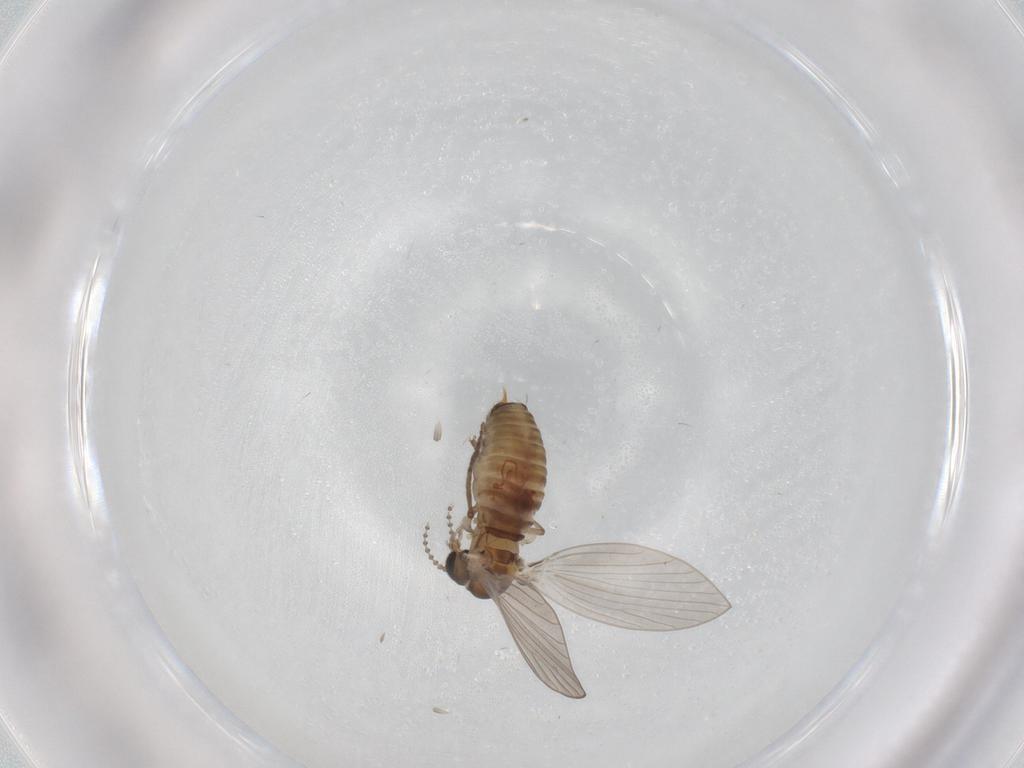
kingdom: Animalia
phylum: Arthropoda
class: Insecta
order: Diptera
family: Psychodidae
